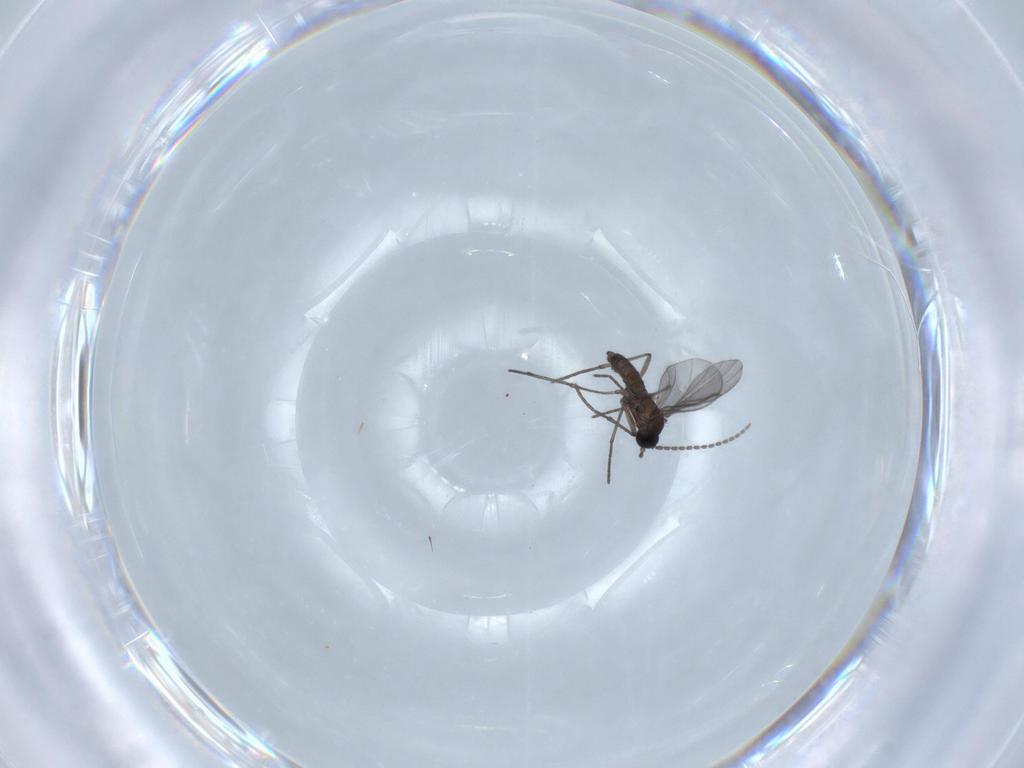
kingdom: Animalia
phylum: Arthropoda
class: Insecta
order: Diptera
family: Sciaridae
